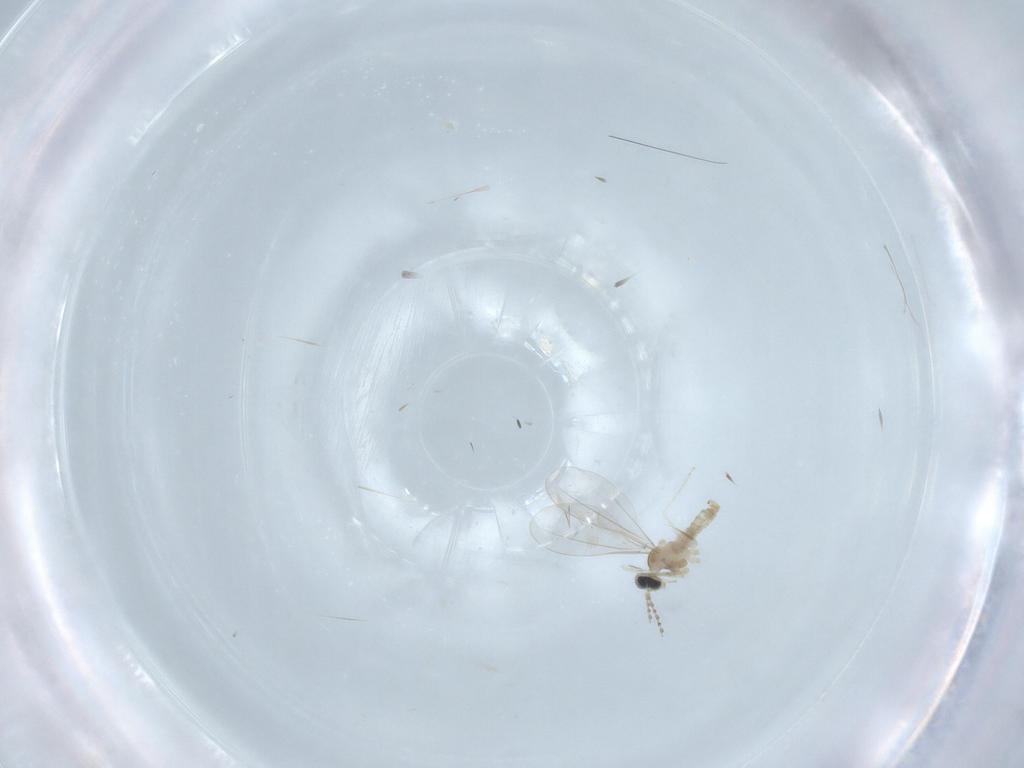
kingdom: Animalia
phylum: Arthropoda
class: Insecta
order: Diptera
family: Cecidomyiidae
